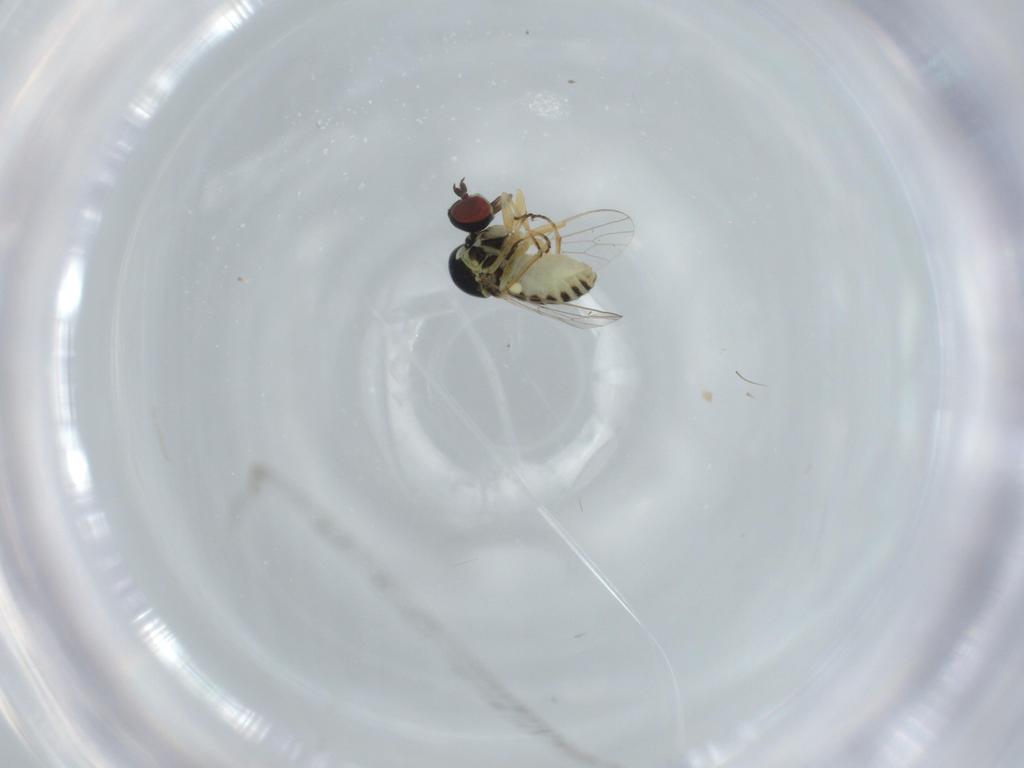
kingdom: Animalia
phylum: Arthropoda
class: Insecta
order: Diptera
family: Bombyliidae
